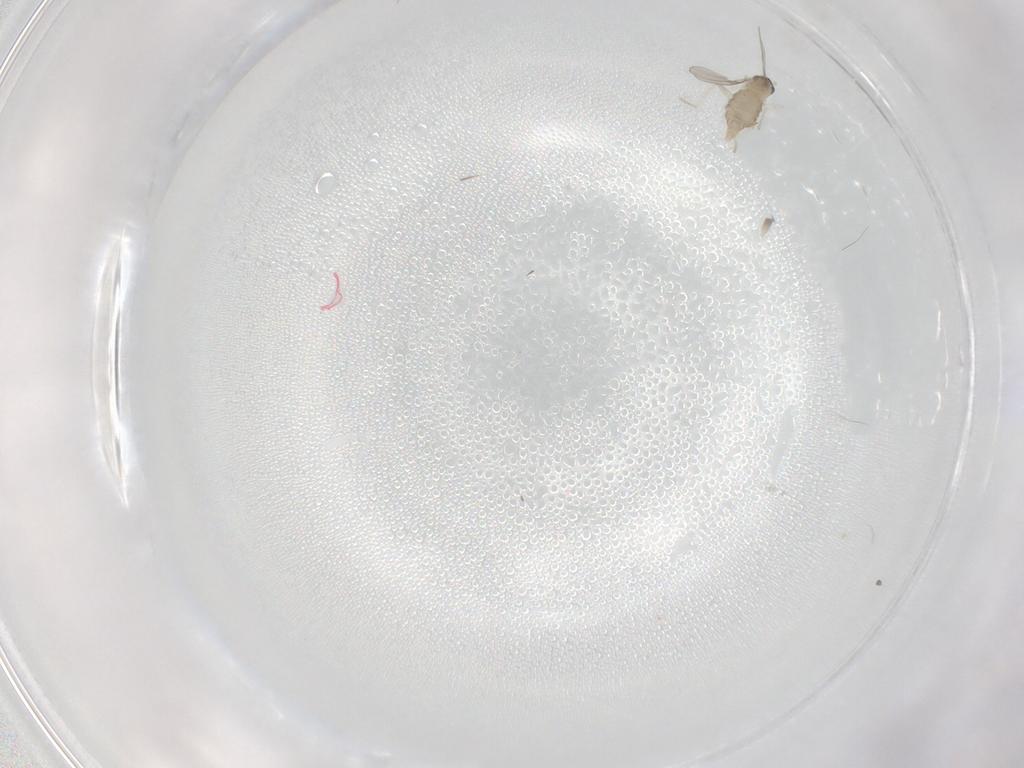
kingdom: Animalia
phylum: Arthropoda
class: Insecta
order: Diptera
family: Cecidomyiidae
